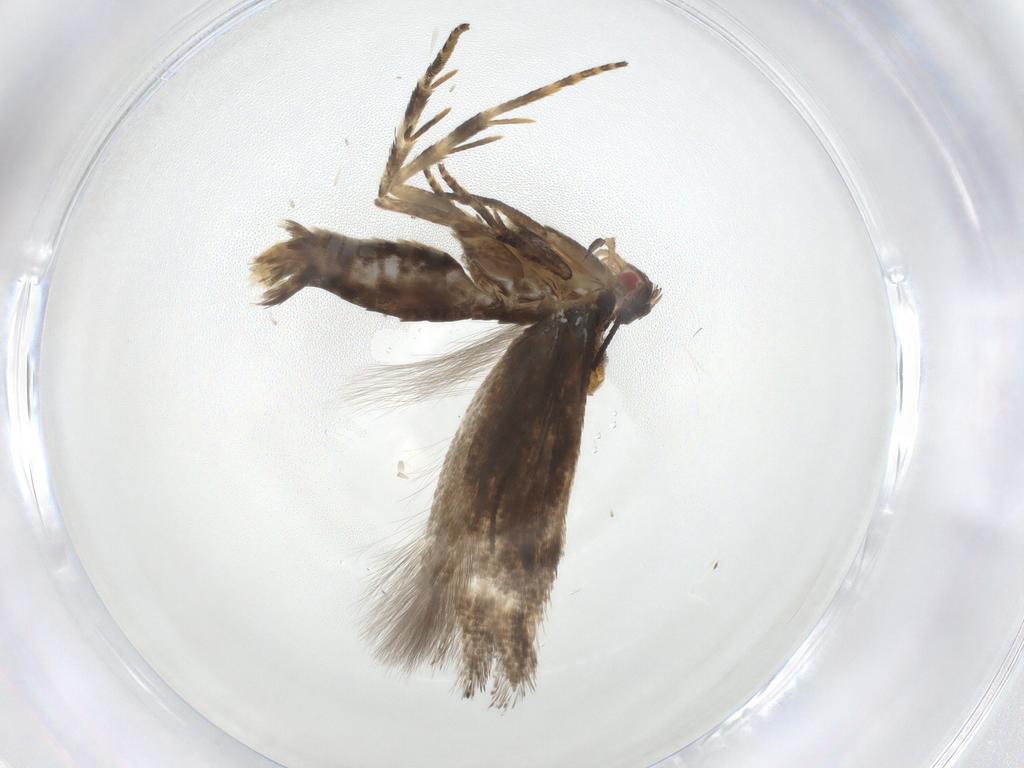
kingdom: Animalia
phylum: Arthropoda
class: Insecta
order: Lepidoptera
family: Momphidae
